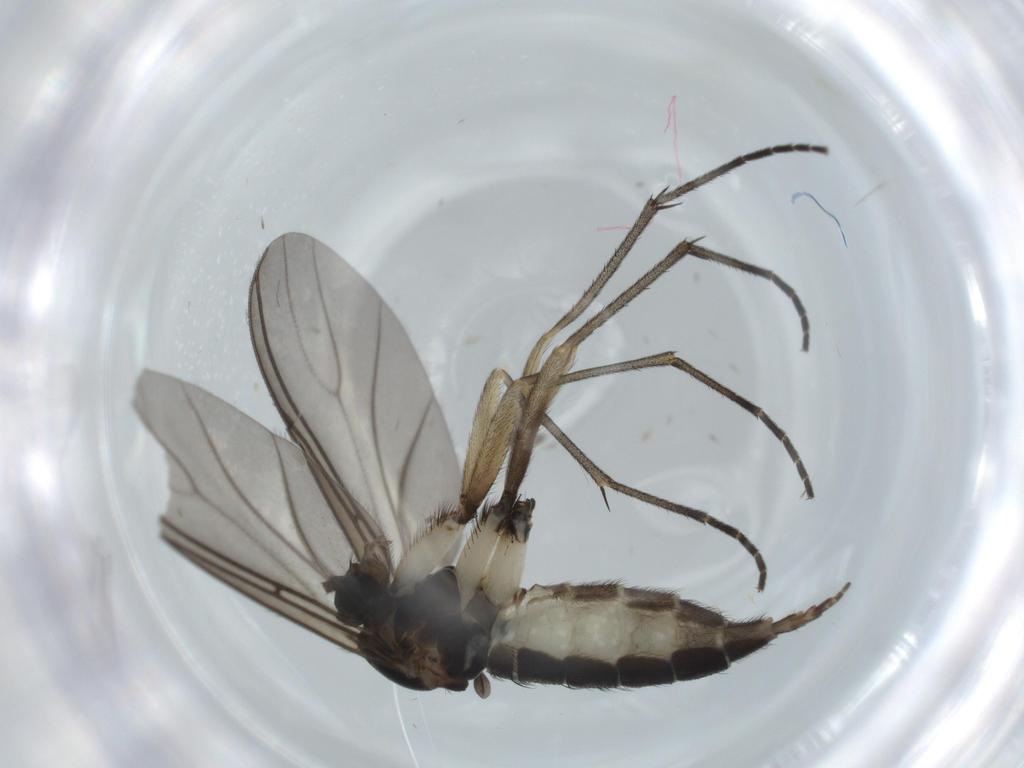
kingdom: Animalia
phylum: Arthropoda
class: Insecta
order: Diptera
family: Sciaridae
